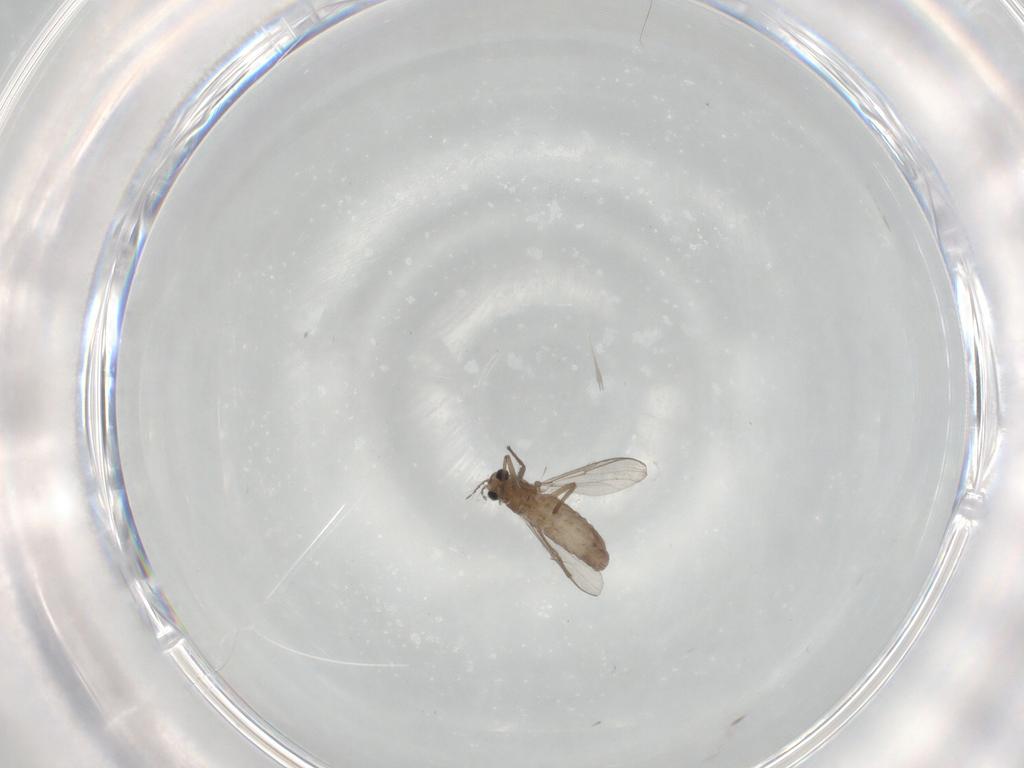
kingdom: Animalia
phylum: Arthropoda
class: Insecta
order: Diptera
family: Chironomidae
